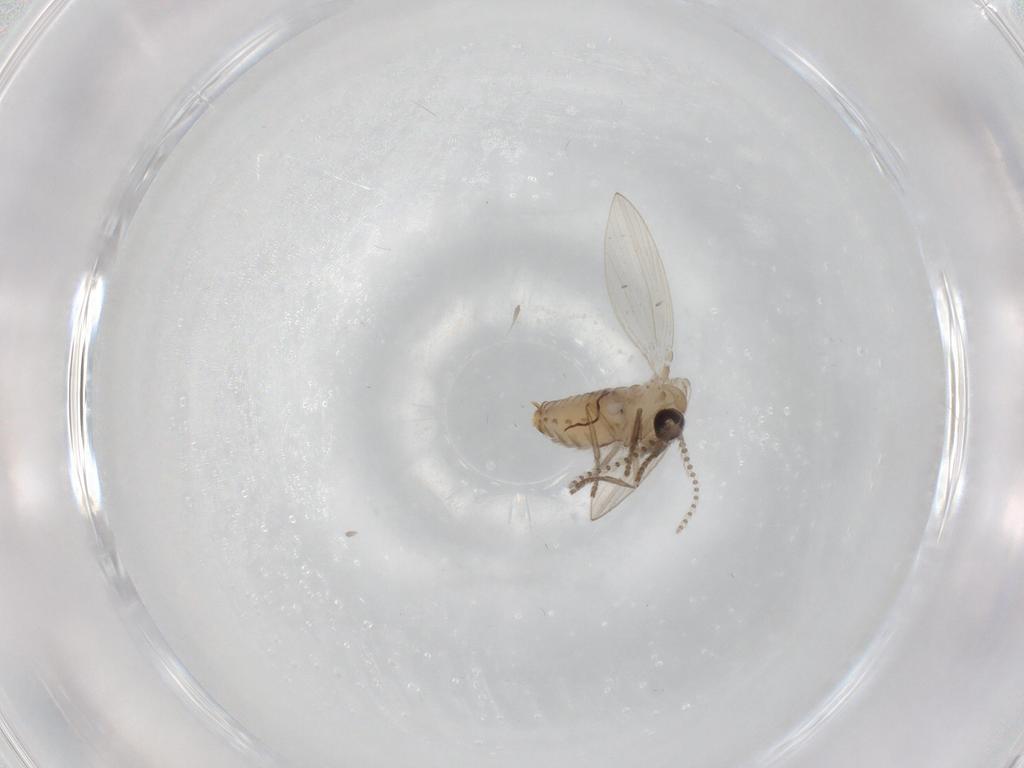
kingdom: Animalia
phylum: Arthropoda
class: Insecta
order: Diptera
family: Psychodidae
